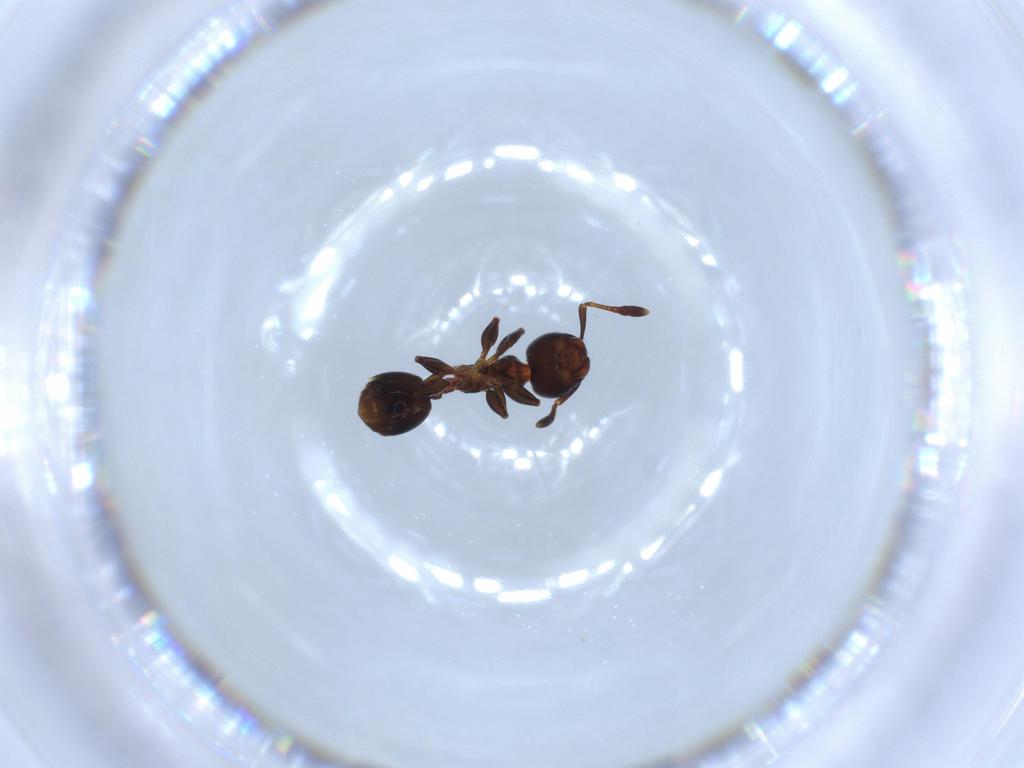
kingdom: Animalia
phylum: Arthropoda
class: Insecta
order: Hymenoptera
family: Formicidae
